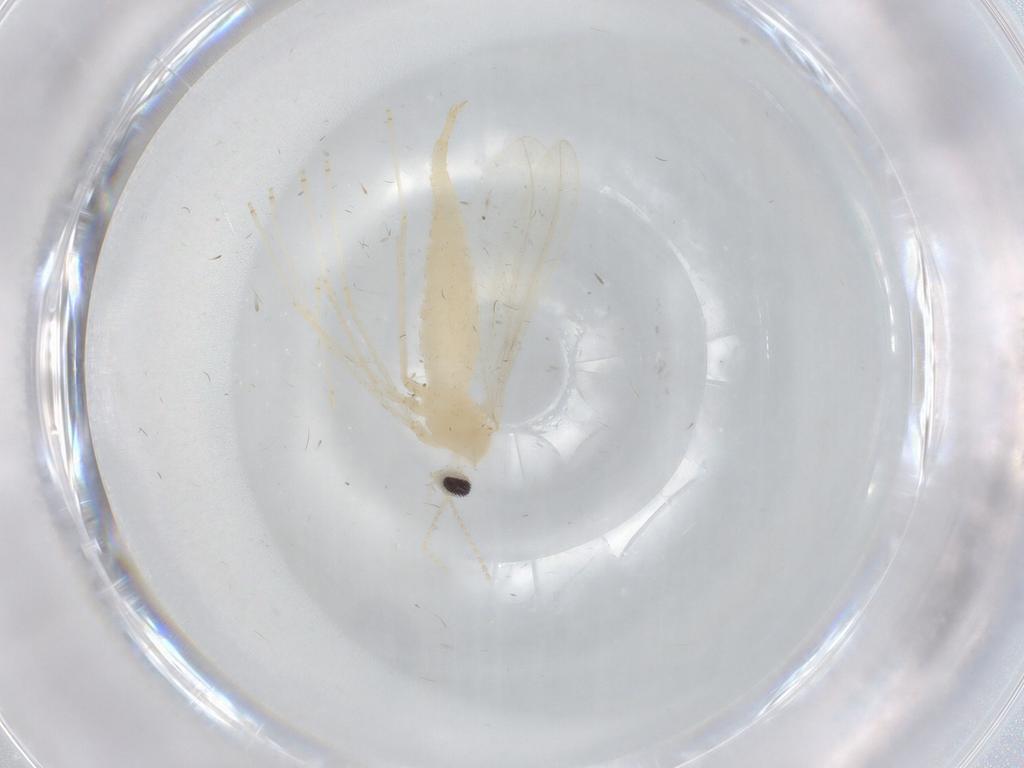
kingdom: Animalia
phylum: Arthropoda
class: Insecta
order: Diptera
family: Cecidomyiidae
